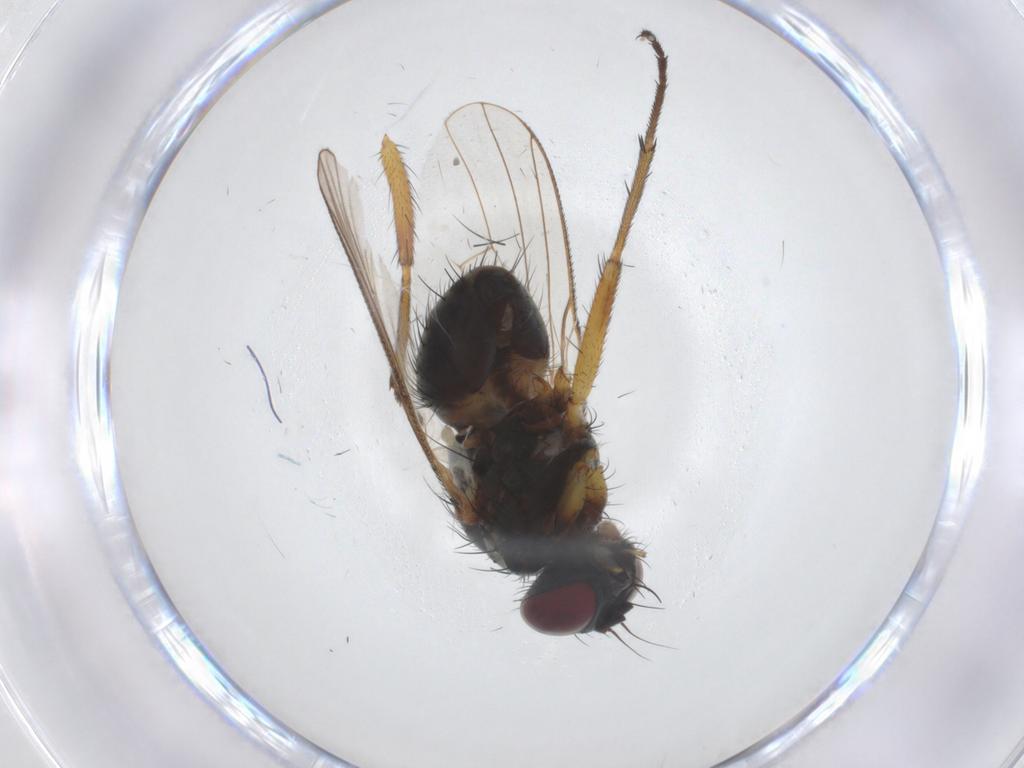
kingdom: Animalia
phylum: Arthropoda
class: Insecta
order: Diptera
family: Muscidae
